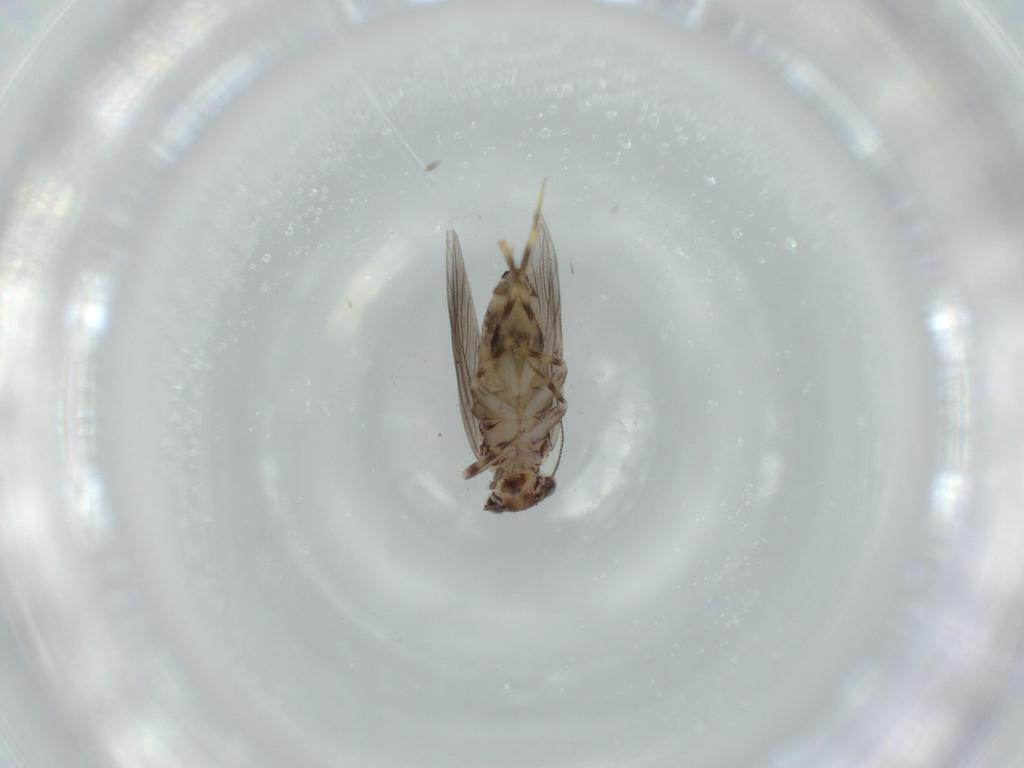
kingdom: Animalia
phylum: Arthropoda
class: Insecta
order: Psocodea
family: Lepidopsocidae
